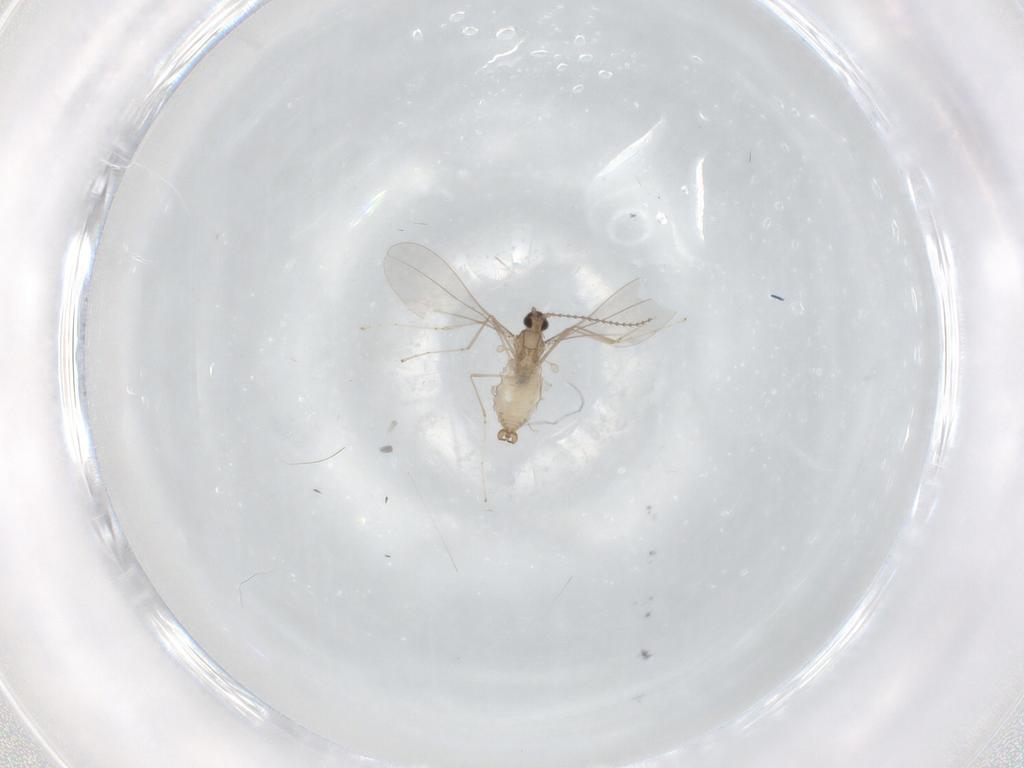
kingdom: Animalia
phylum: Arthropoda
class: Insecta
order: Diptera
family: Cecidomyiidae
